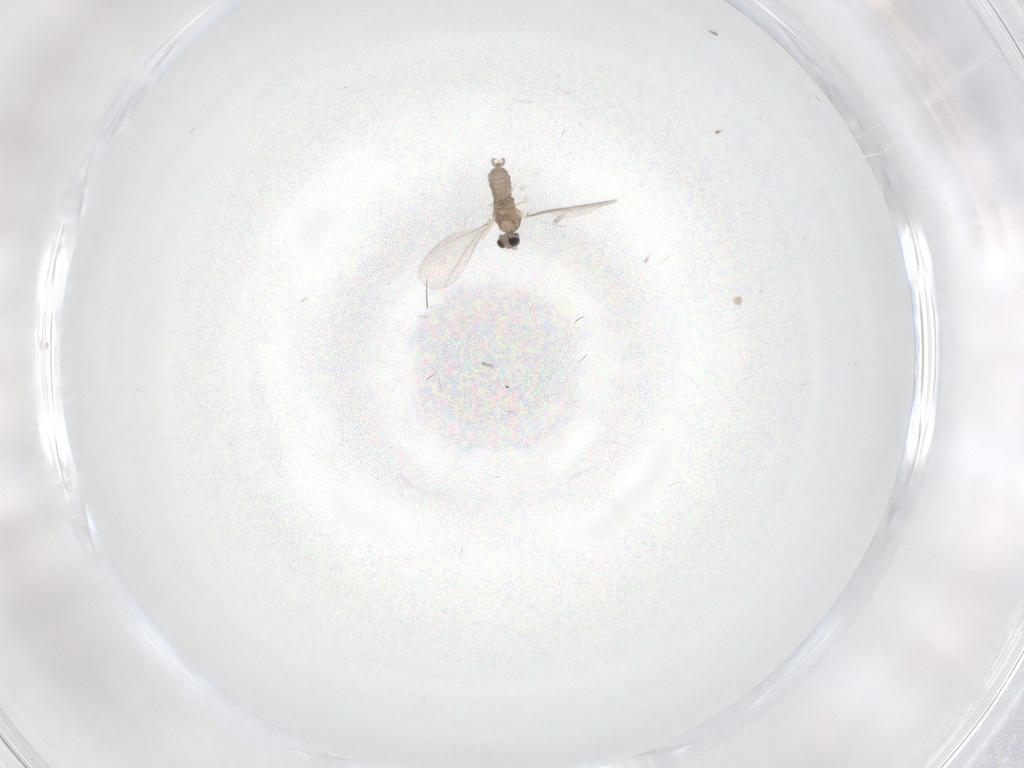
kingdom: Animalia
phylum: Arthropoda
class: Insecta
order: Diptera
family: Cecidomyiidae
